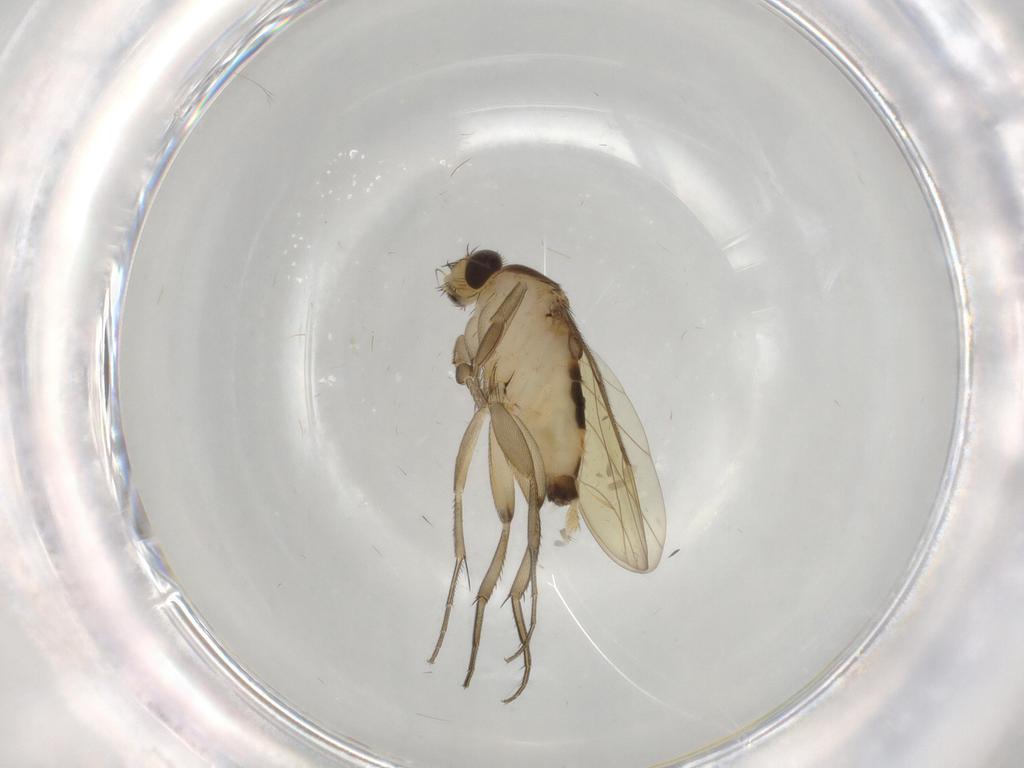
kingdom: Animalia
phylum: Arthropoda
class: Insecta
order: Diptera
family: Phoridae
